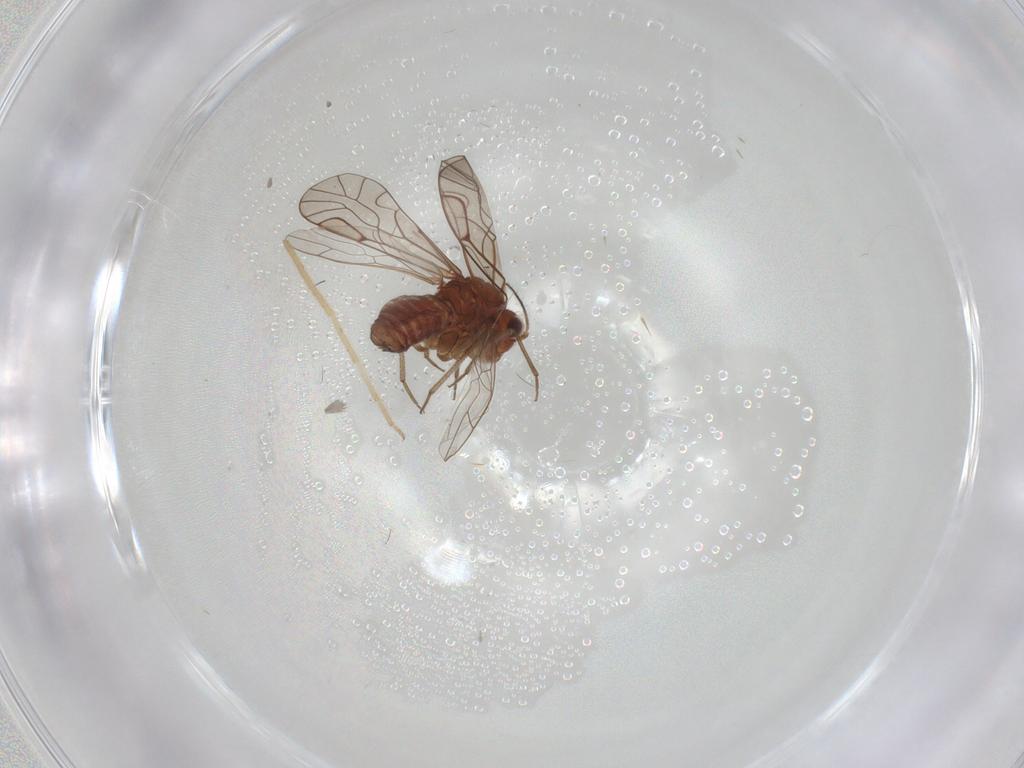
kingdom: Animalia
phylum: Arthropoda
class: Insecta
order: Psocodea
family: Lachesillidae
